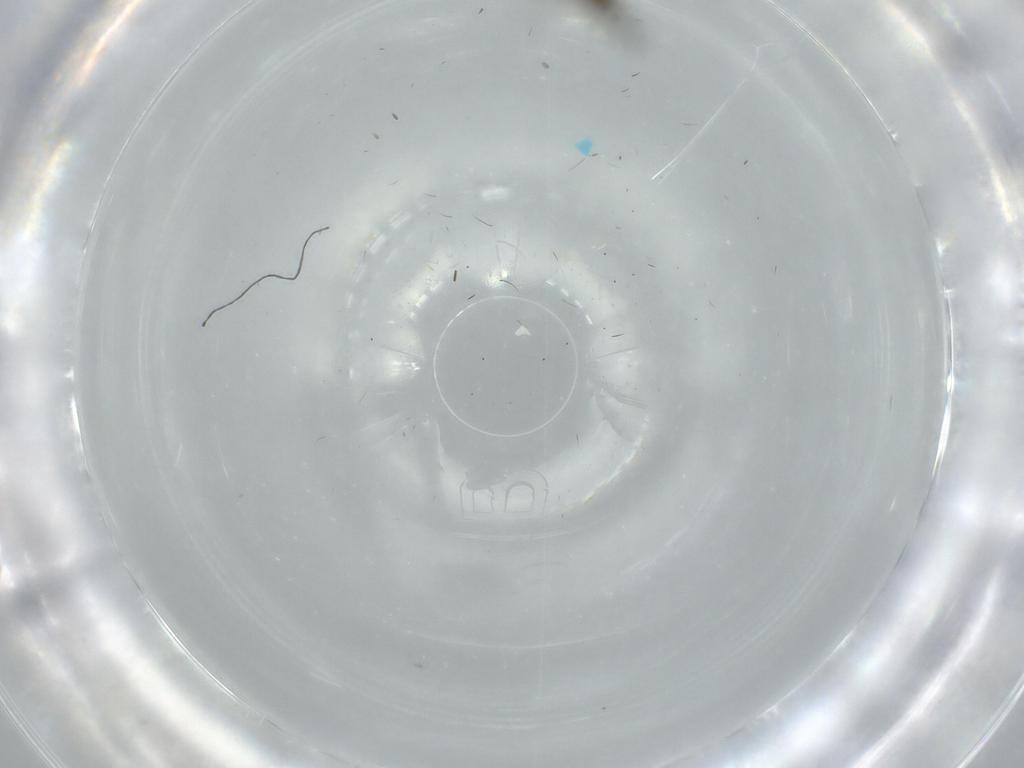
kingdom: Animalia
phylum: Arthropoda
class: Insecta
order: Diptera
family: Ceratopogonidae
